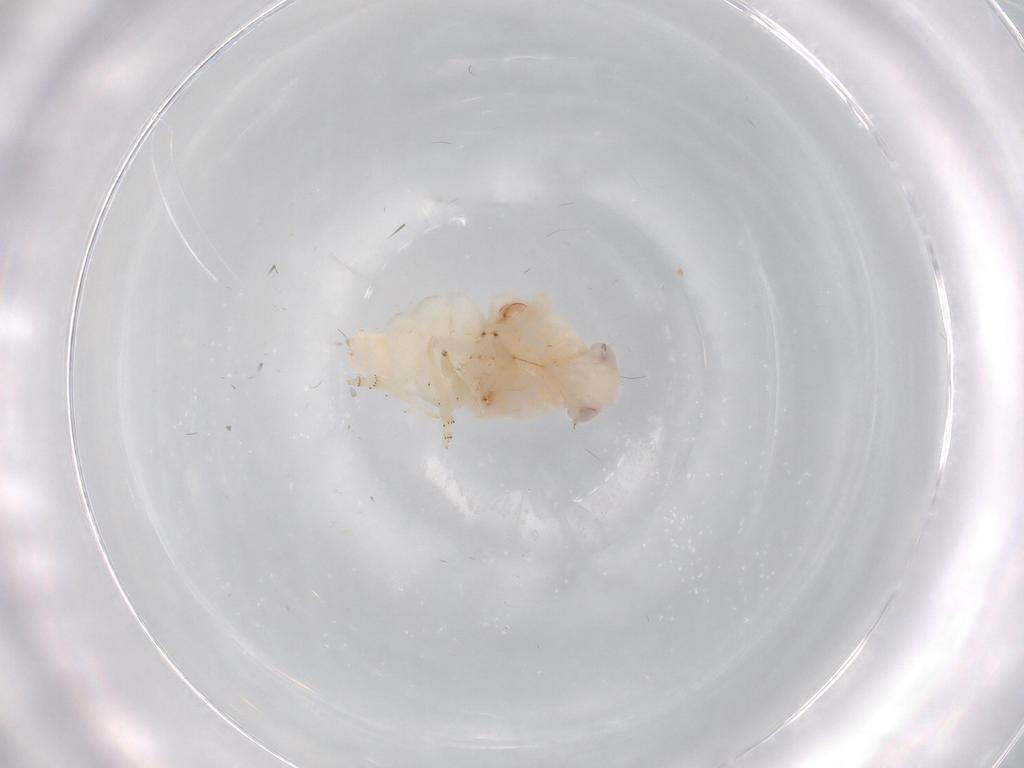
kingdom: Animalia
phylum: Arthropoda
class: Insecta
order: Hemiptera
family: Nogodinidae
